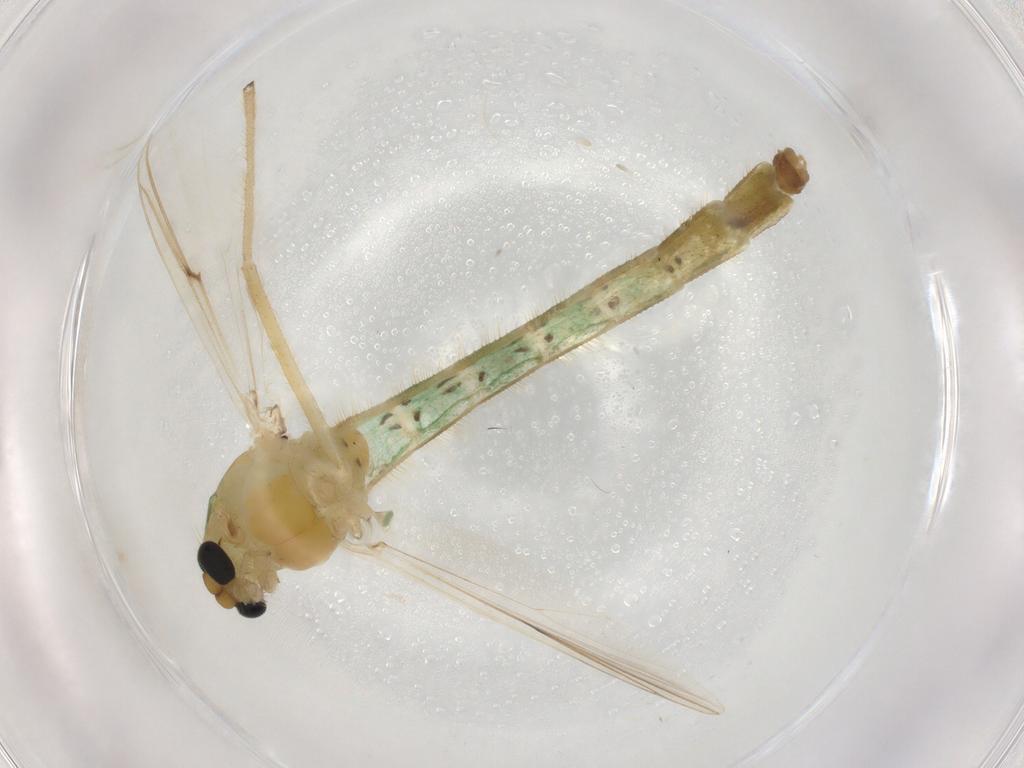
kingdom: Animalia
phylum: Arthropoda
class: Insecta
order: Diptera
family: Chironomidae
